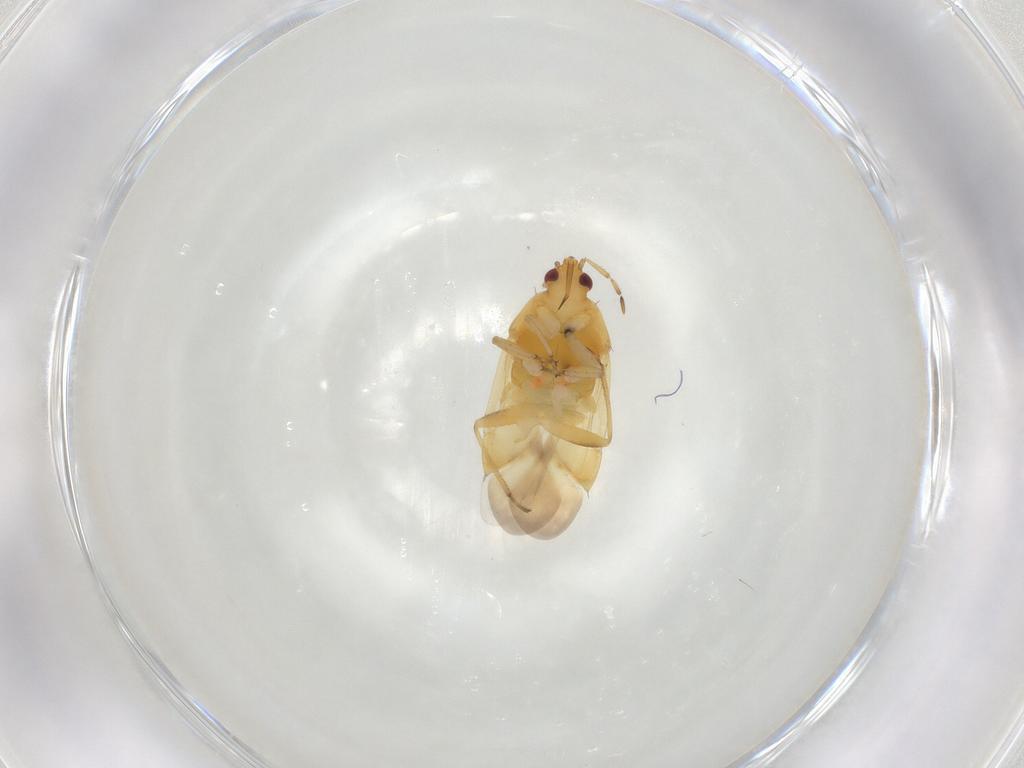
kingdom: Animalia
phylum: Arthropoda
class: Insecta
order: Hemiptera
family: Anthocoridae
